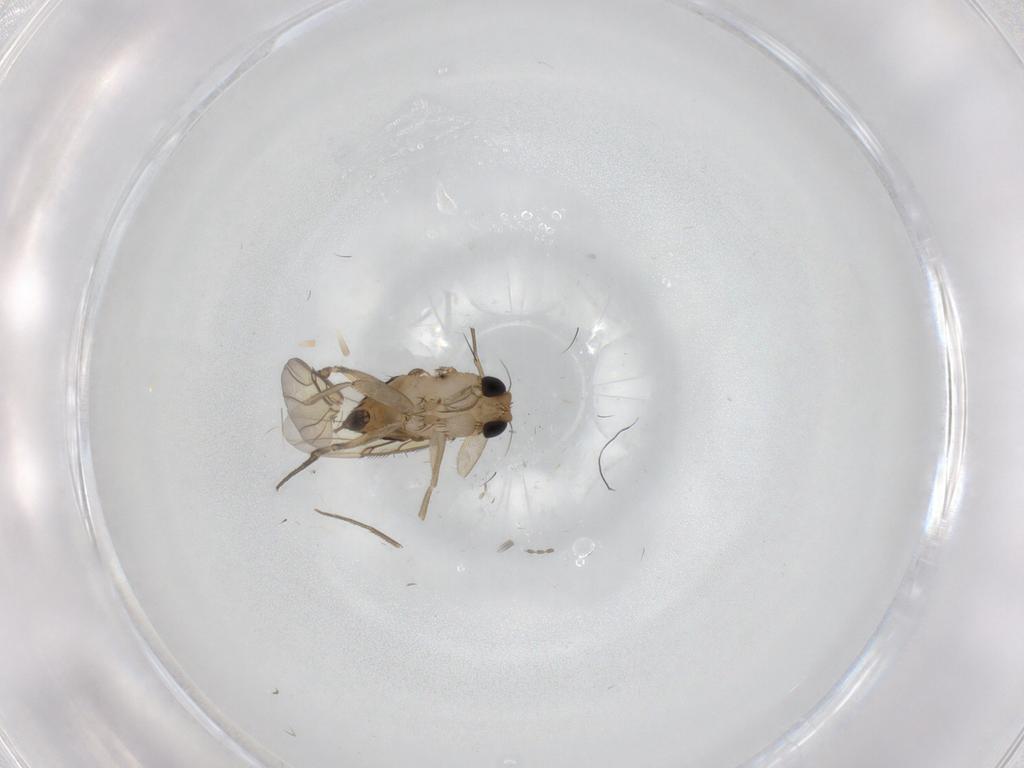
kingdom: Animalia
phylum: Arthropoda
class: Insecta
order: Diptera
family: Phoridae
